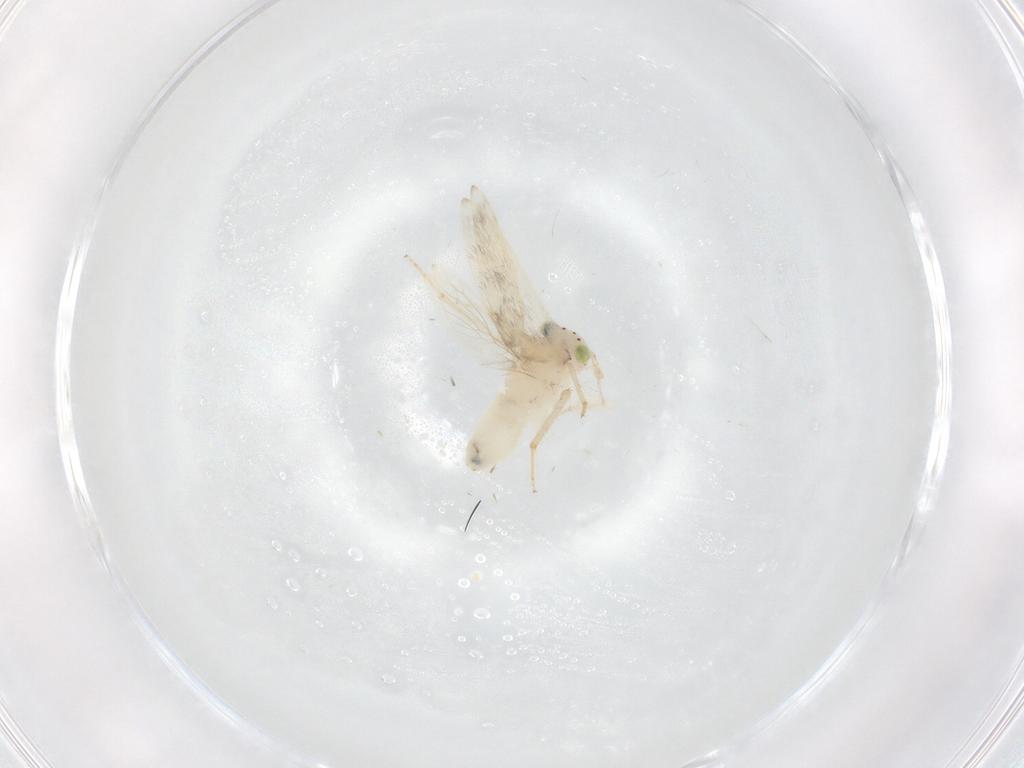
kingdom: Animalia
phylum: Arthropoda
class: Insecta
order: Psocodea
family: Lepidopsocidae
